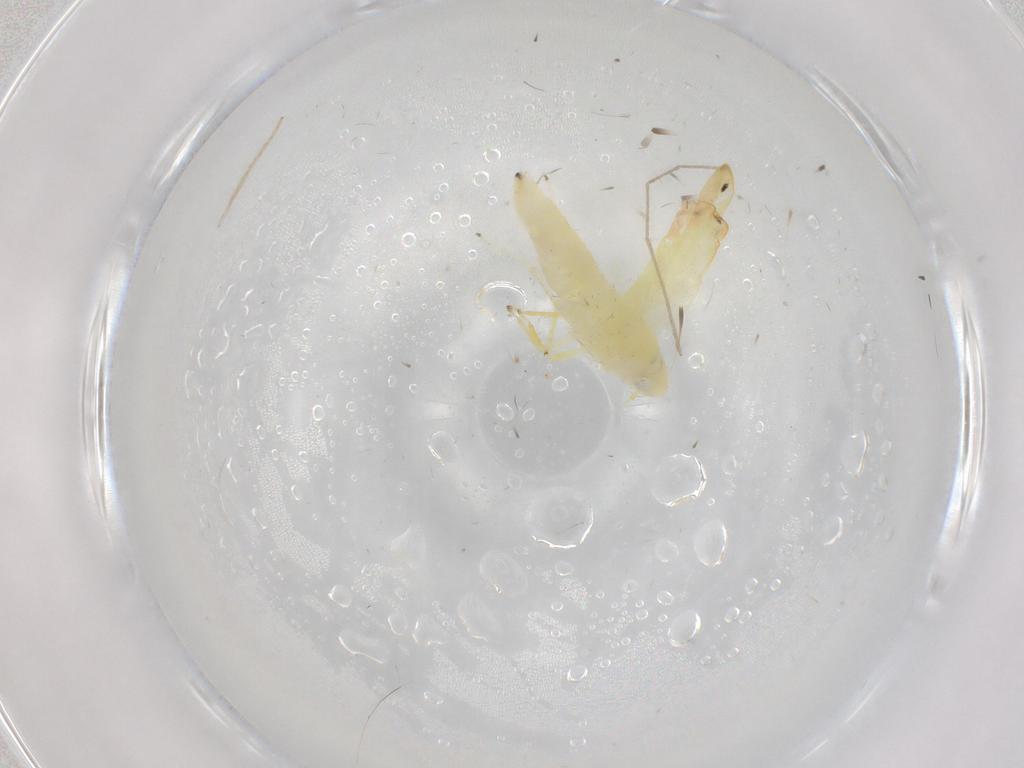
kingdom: Animalia
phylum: Arthropoda
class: Insecta
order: Hemiptera
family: Cicadellidae
